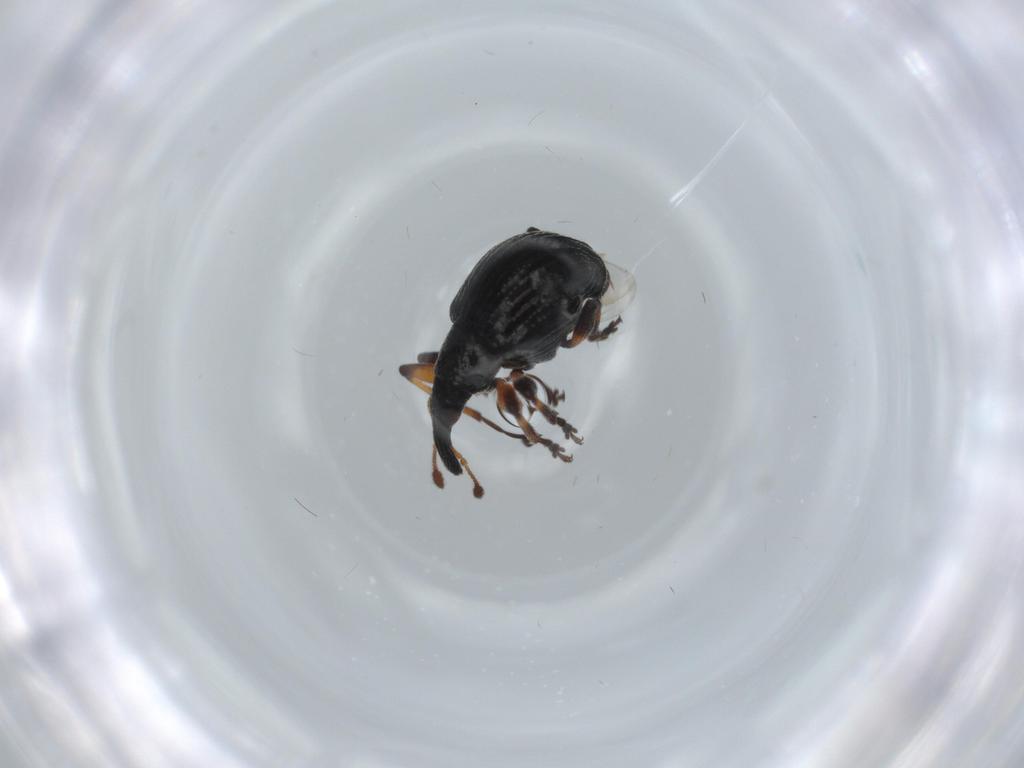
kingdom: Animalia
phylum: Arthropoda
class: Insecta
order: Coleoptera
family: Brentidae
